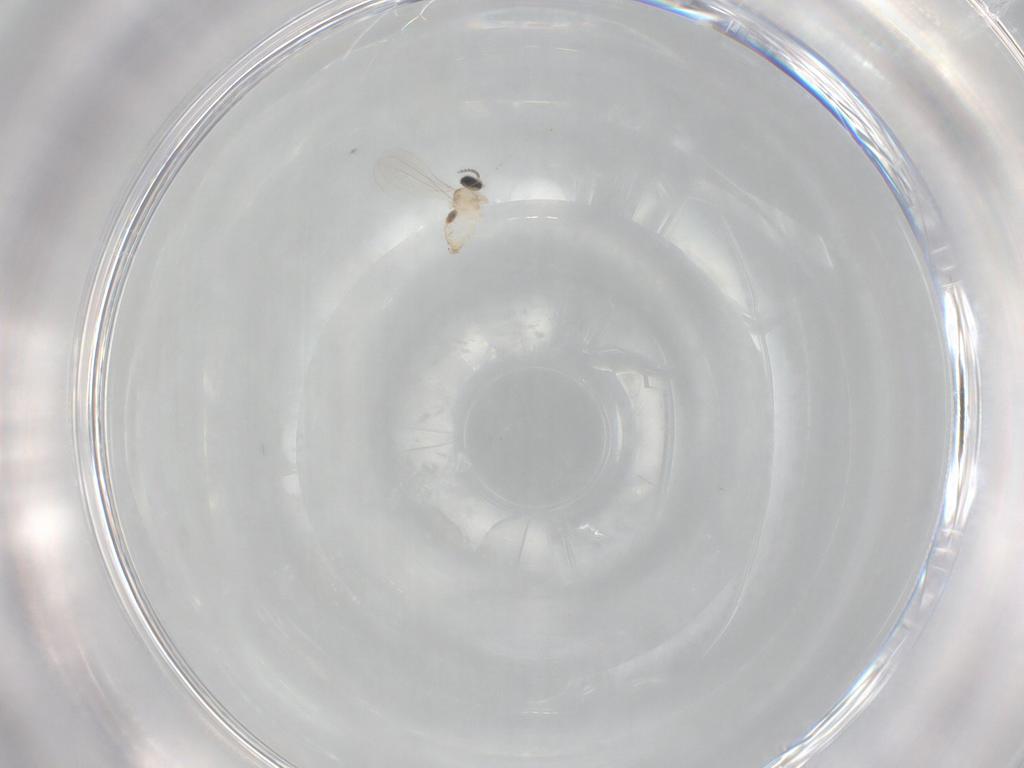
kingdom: Animalia
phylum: Arthropoda
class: Insecta
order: Diptera
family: Cecidomyiidae
